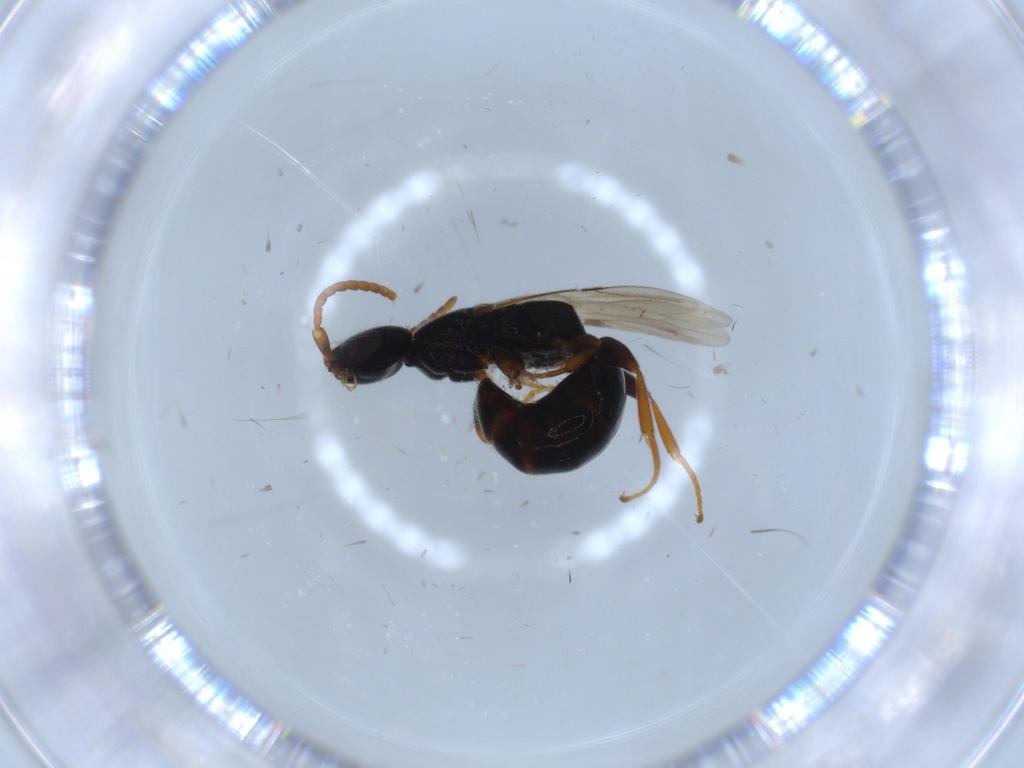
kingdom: Animalia
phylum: Arthropoda
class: Insecta
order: Hymenoptera
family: Bethylidae
